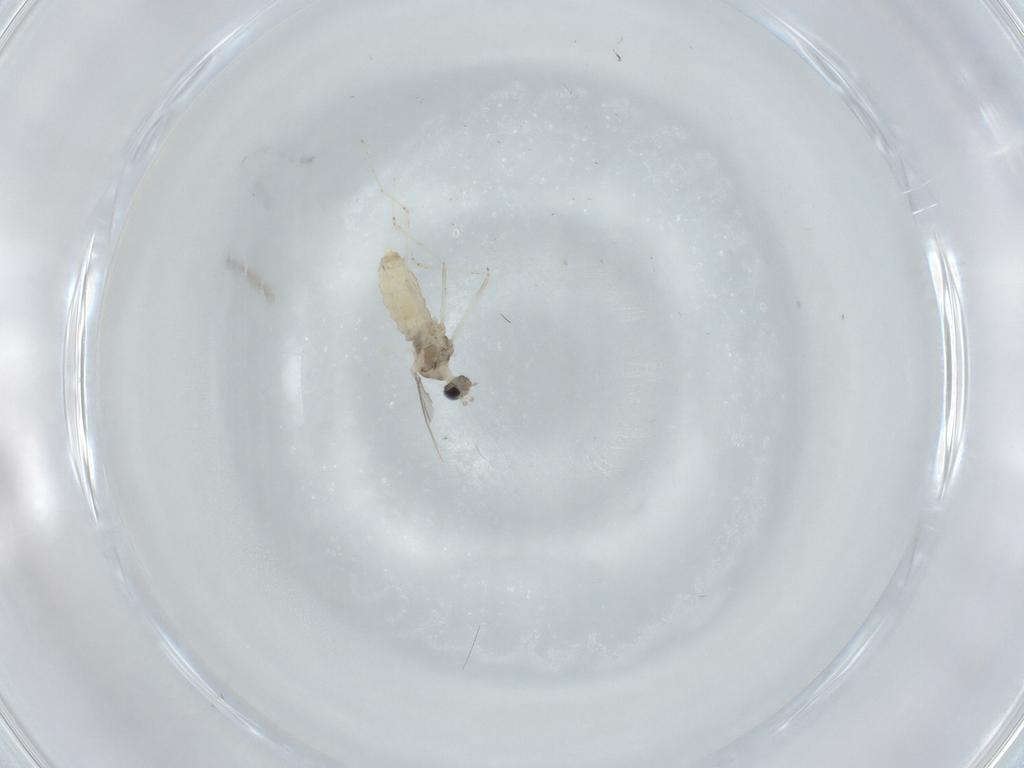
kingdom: Animalia
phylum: Arthropoda
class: Insecta
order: Diptera
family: Cecidomyiidae
